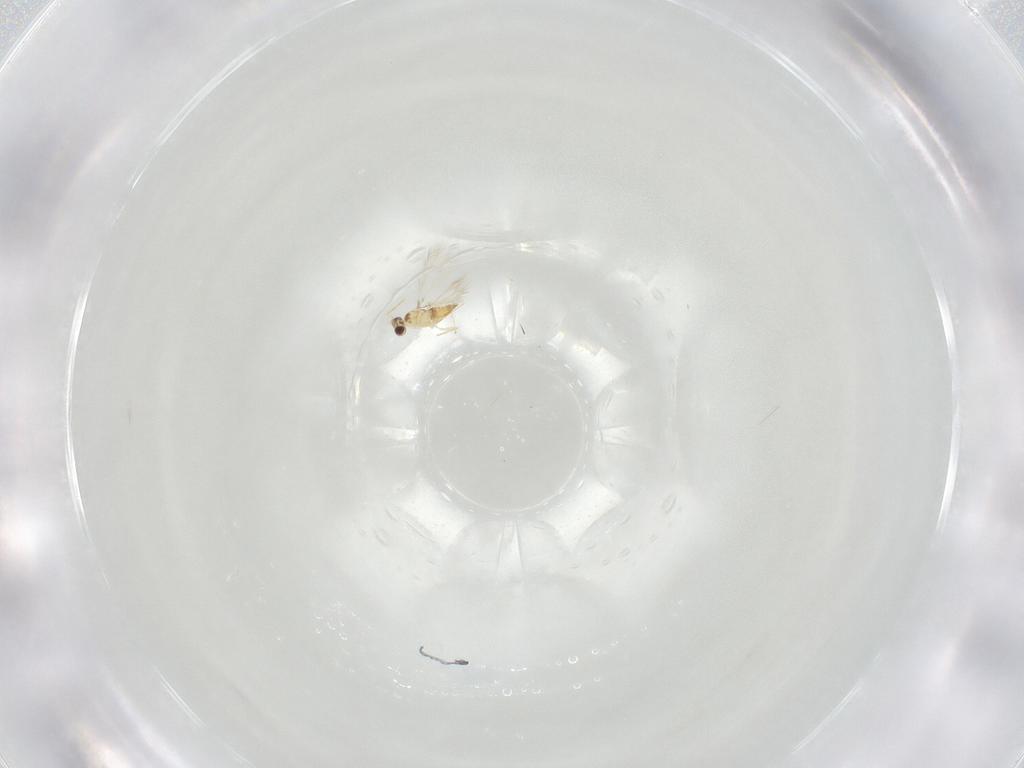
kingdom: Animalia
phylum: Arthropoda
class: Insecta
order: Hymenoptera
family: Mymaridae
